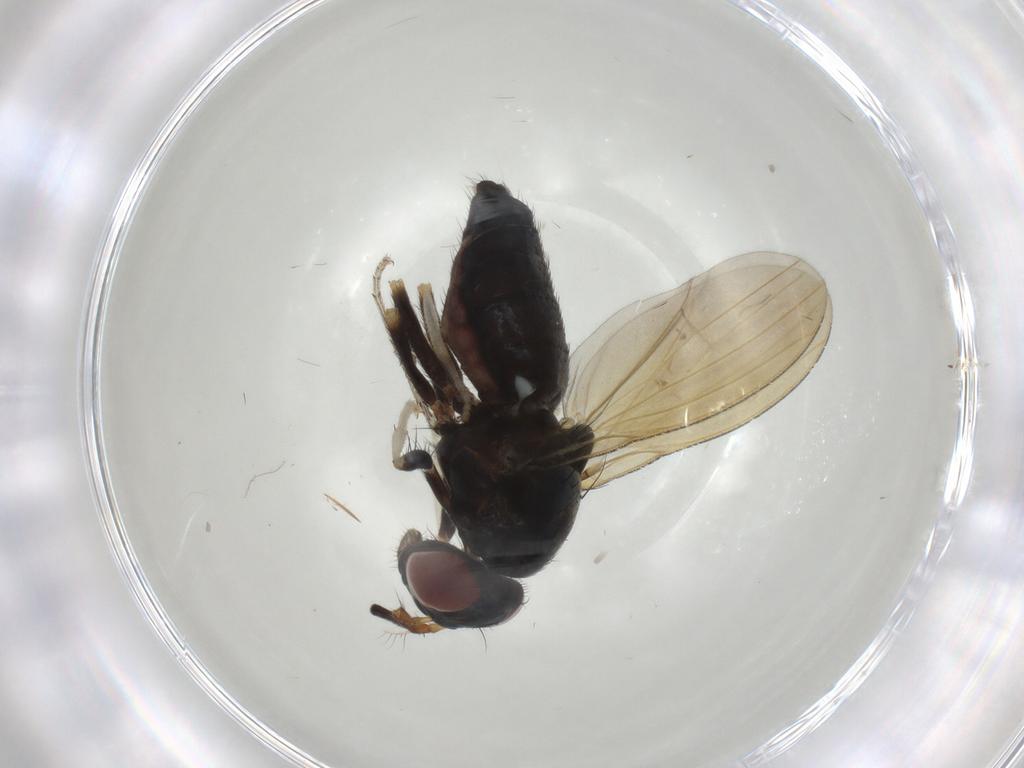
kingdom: Animalia
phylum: Arthropoda
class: Insecta
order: Diptera
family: Lauxaniidae
